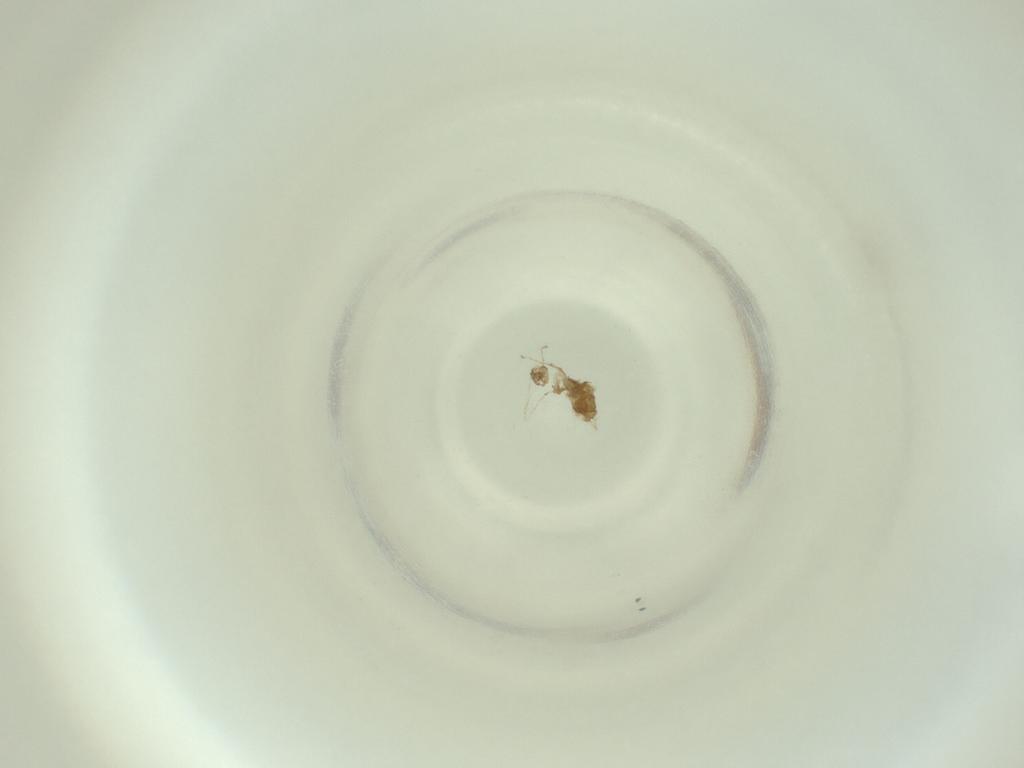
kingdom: Animalia
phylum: Arthropoda
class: Insecta
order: Diptera
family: Cecidomyiidae
